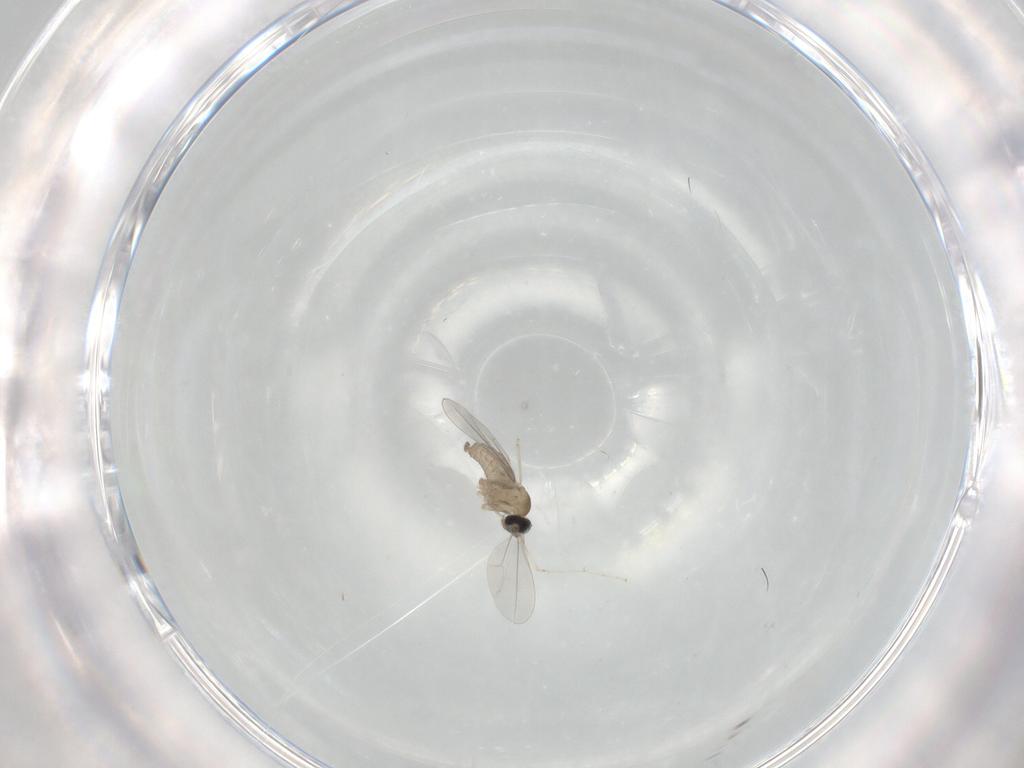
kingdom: Animalia
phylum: Arthropoda
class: Insecta
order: Diptera
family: Cecidomyiidae
